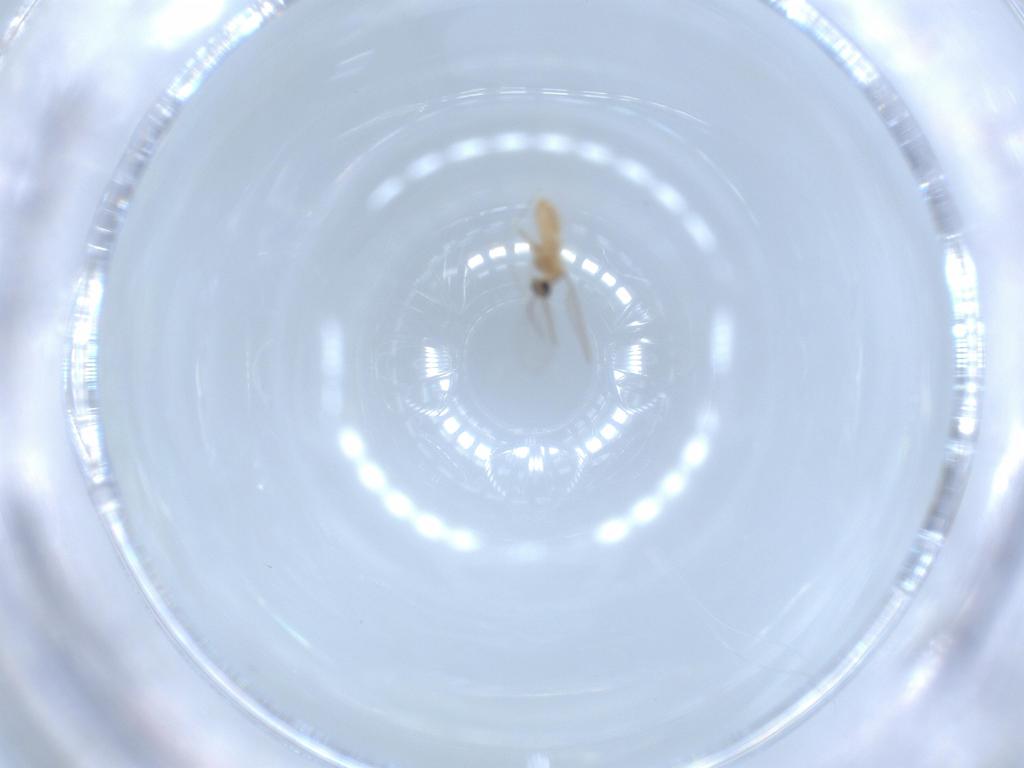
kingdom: Animalia
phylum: Arthropoda
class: Insecta
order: Diptera
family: Cecidomyiidae
